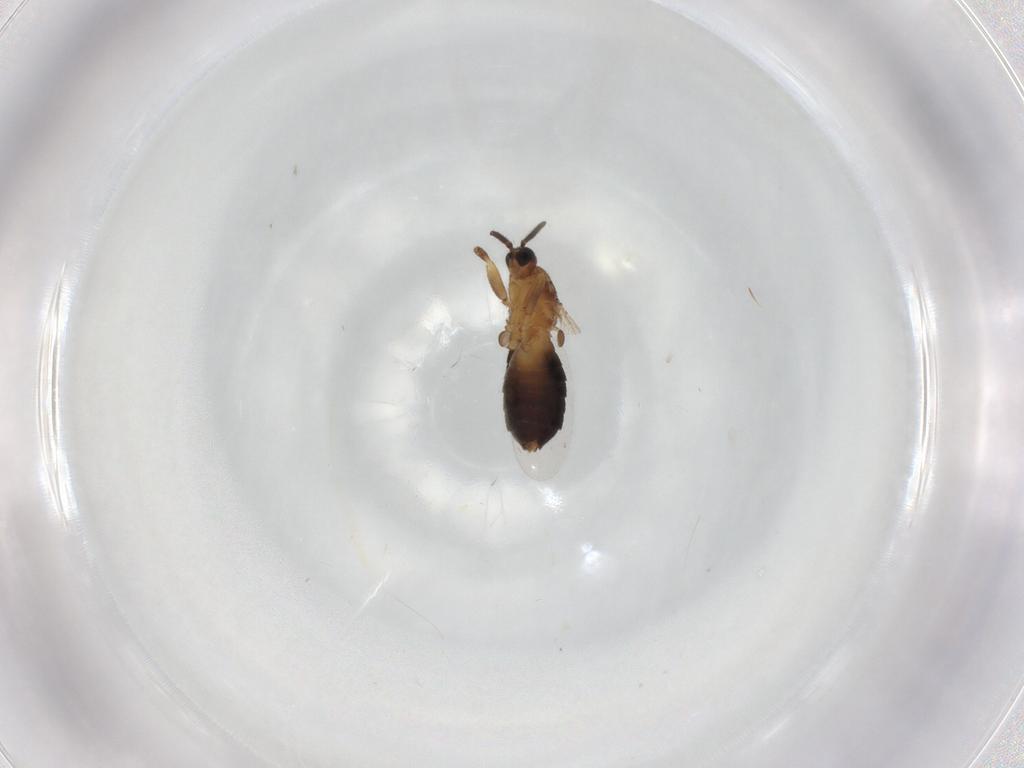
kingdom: Animalia
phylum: Arthropoda
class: Insecta
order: Diptera
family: Scatopsidae
